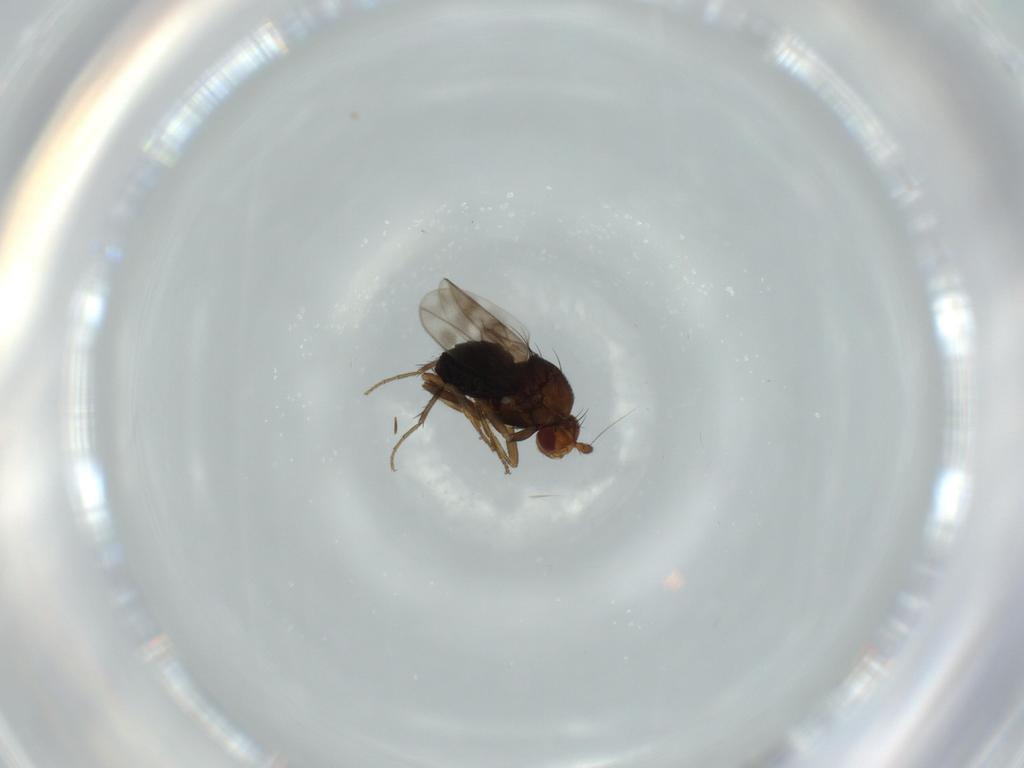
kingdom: Animalia
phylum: Arthropoda
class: Insecta
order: Diptera
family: Sphaeroceridae
